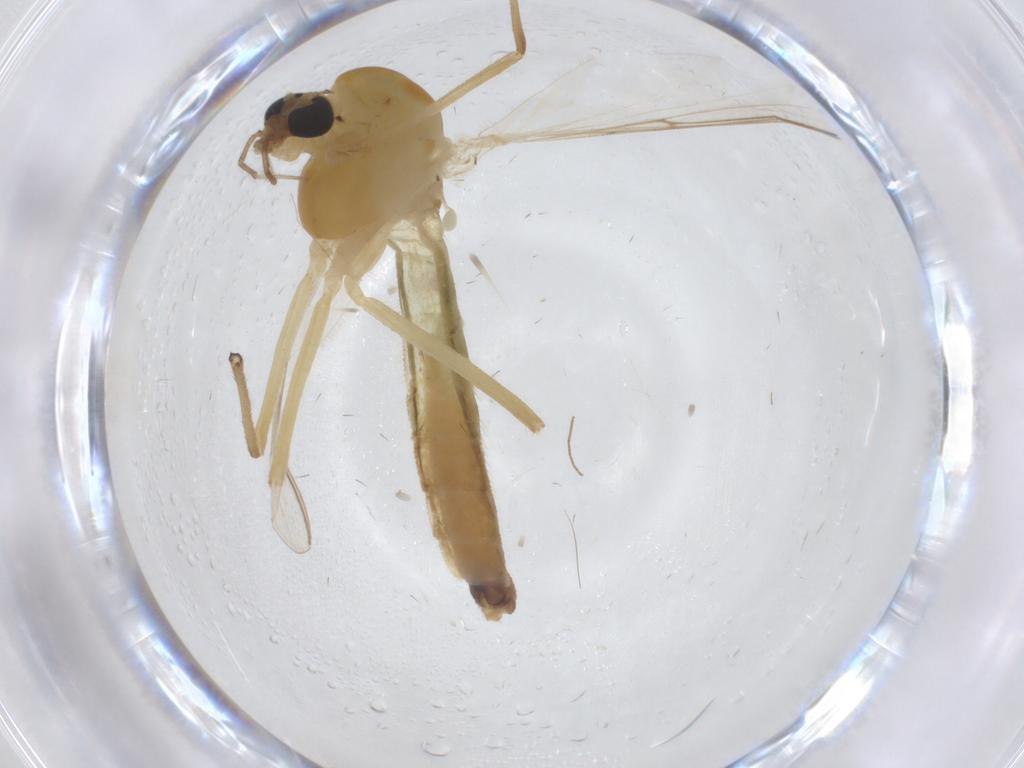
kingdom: Animalia
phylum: Arthropoda
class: Insecta
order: Diptera
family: Chironomidae
